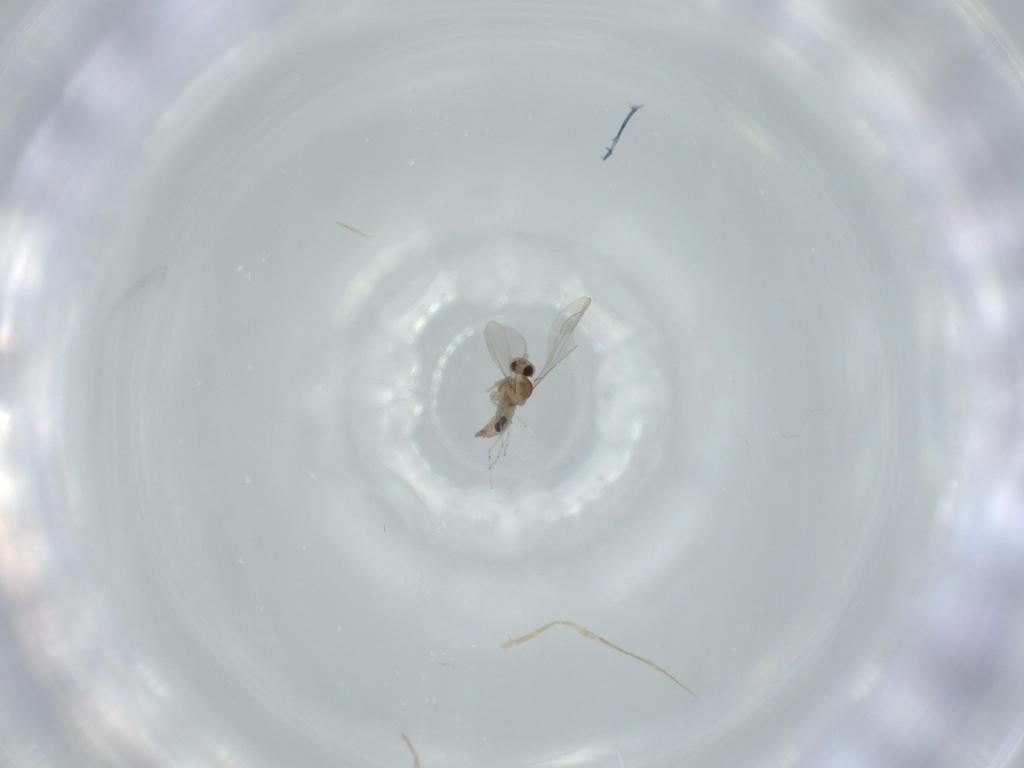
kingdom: Animalia
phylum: Arthropoda
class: Insecta
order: Diptera
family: Cecidomyiidae
